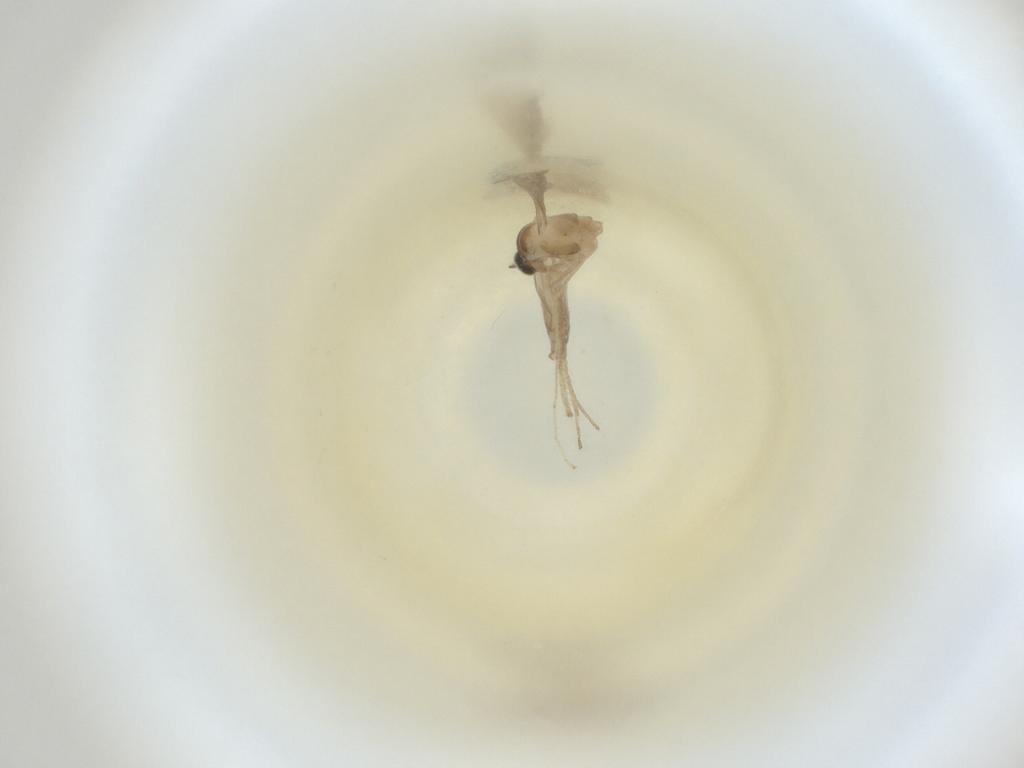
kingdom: Animalia
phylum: Arthropoda
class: Insecta
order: Diptera
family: Cecidomyiidae
